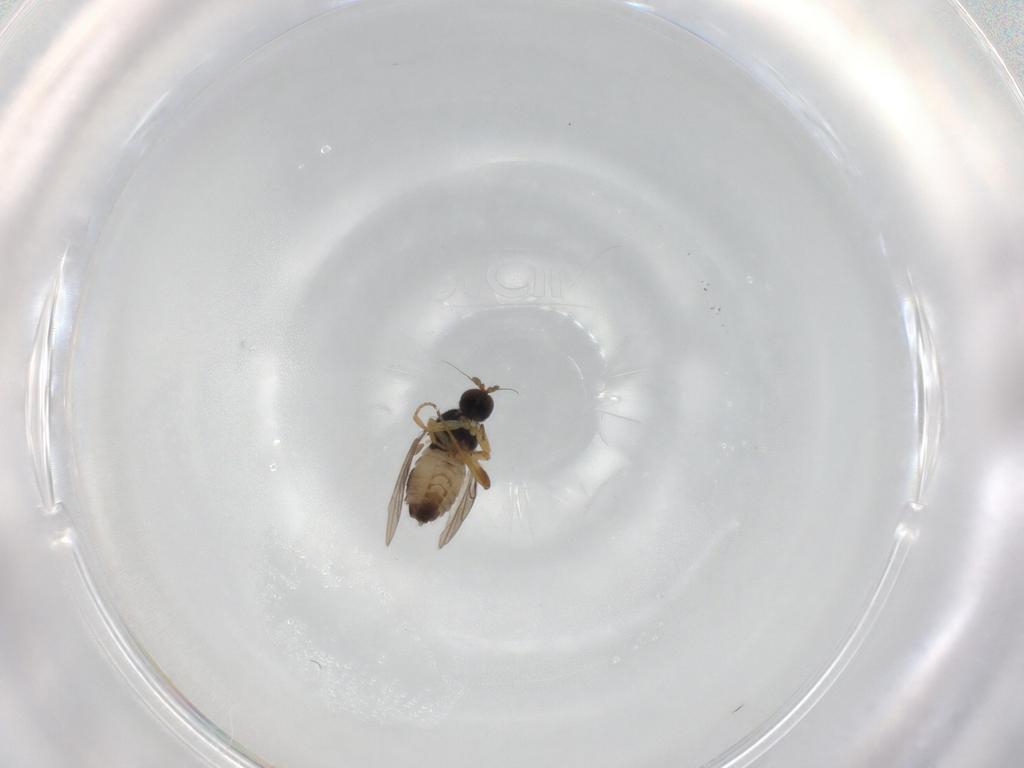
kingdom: Animalia
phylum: Arthropoda
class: Insecta
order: Diptera
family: Hybotidae
